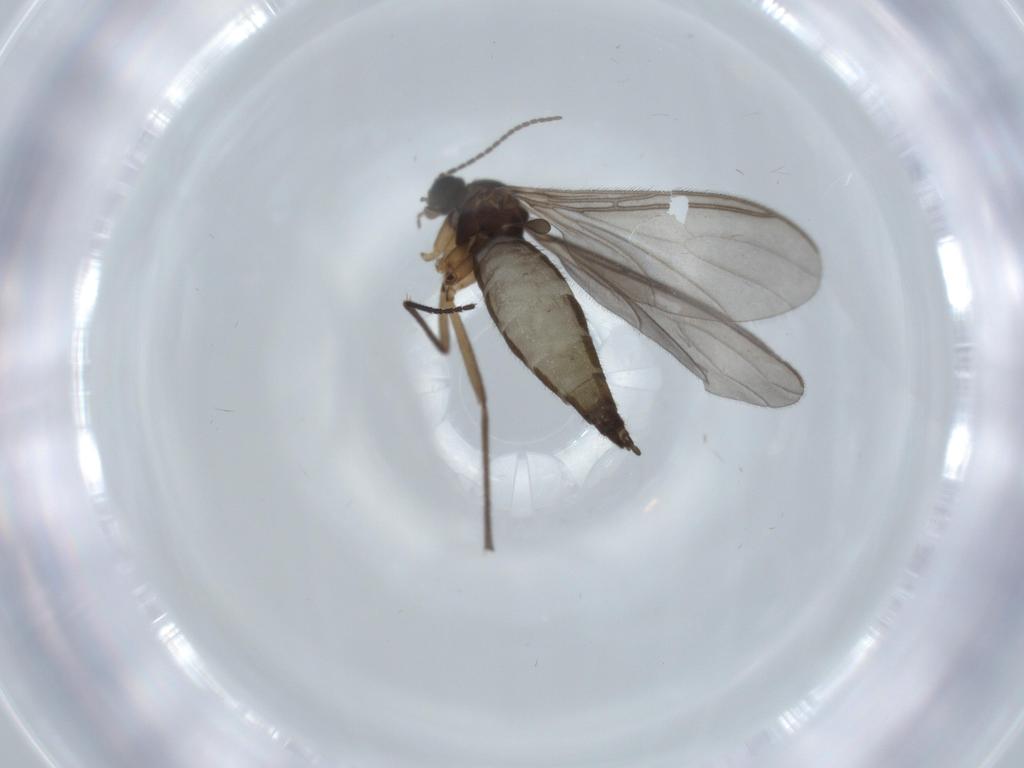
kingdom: Animalia
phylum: Arthropoda
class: Insecta
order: Diptera
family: Sciaridae
